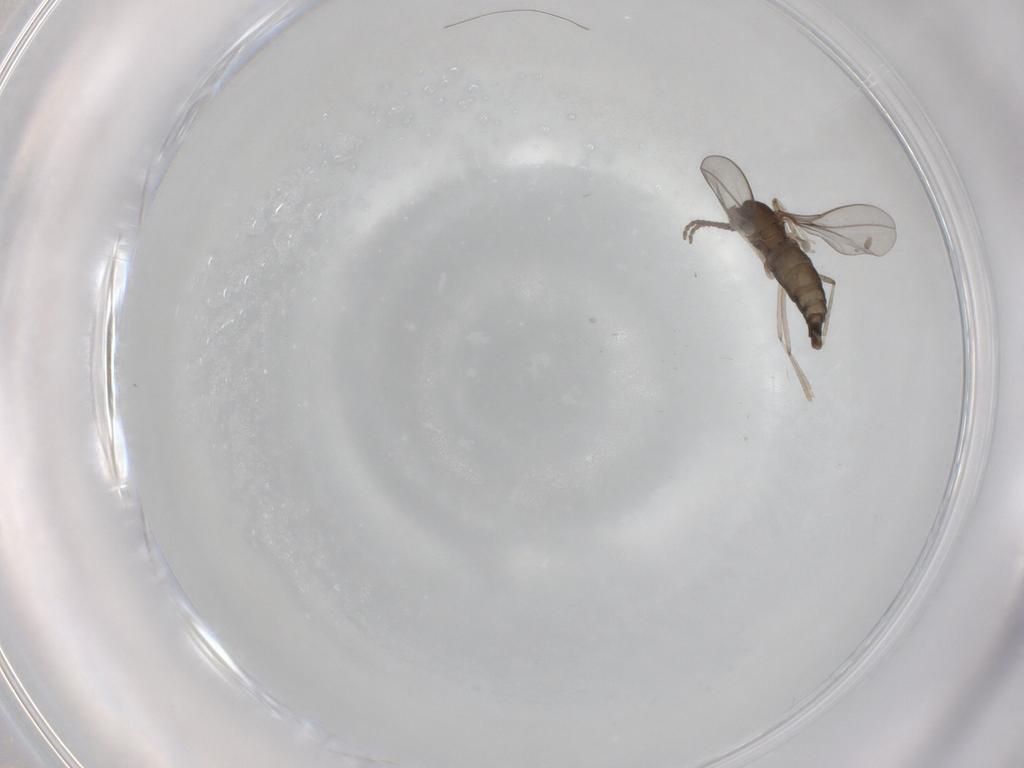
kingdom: Animalia
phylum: Arthropoda
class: Insecta
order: Diptera
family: Cecidomyiidae
